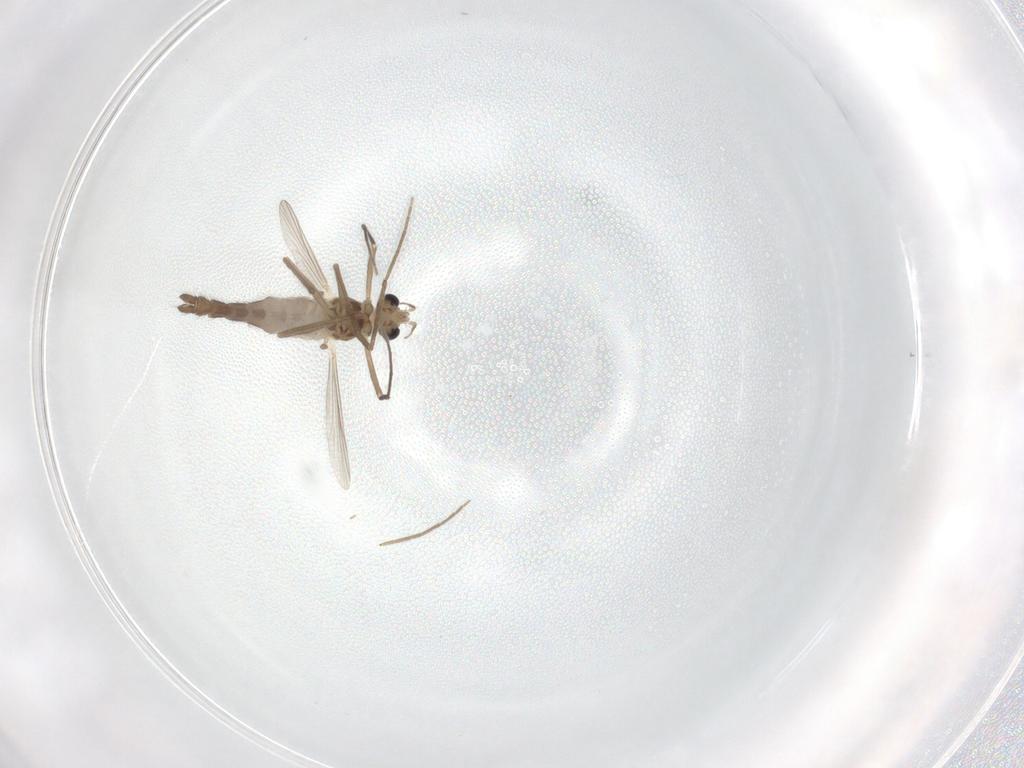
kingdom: Animalia
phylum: Arthropoda
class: Insecta
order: Diptera
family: Chironomidae
